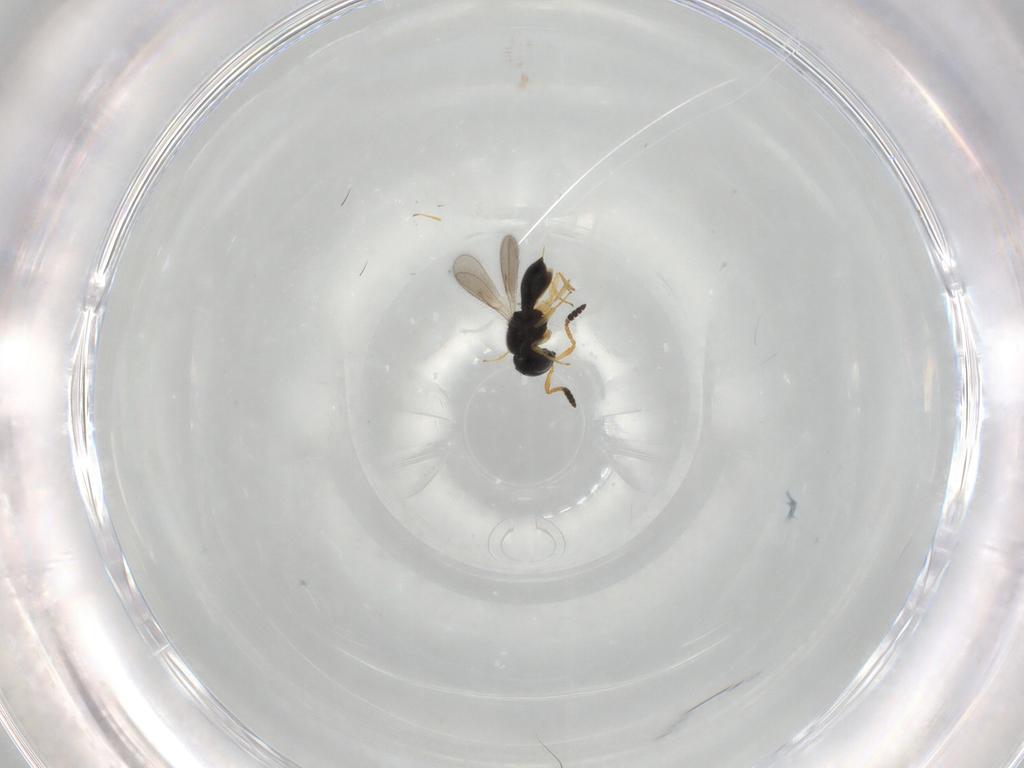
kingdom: Animalia
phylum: Arthropoda
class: Insecta
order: Hymenoptera
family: Scelionidae
